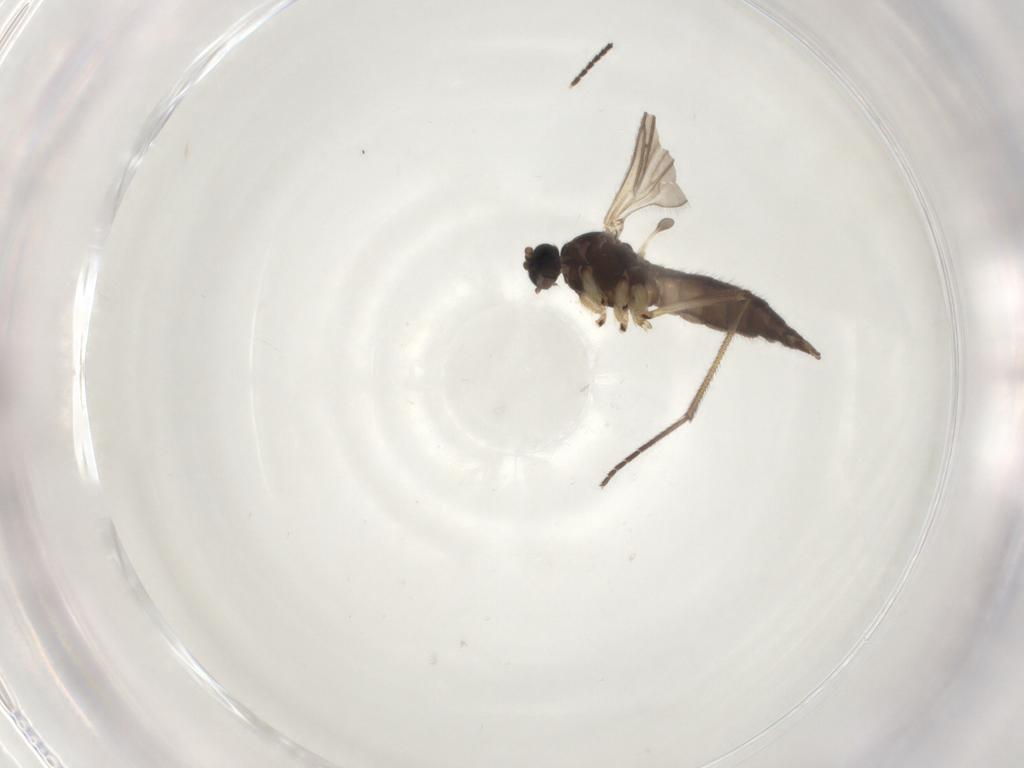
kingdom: Animalia
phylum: Arthropoda
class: Insecta
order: Diptera
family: Sciaridae
